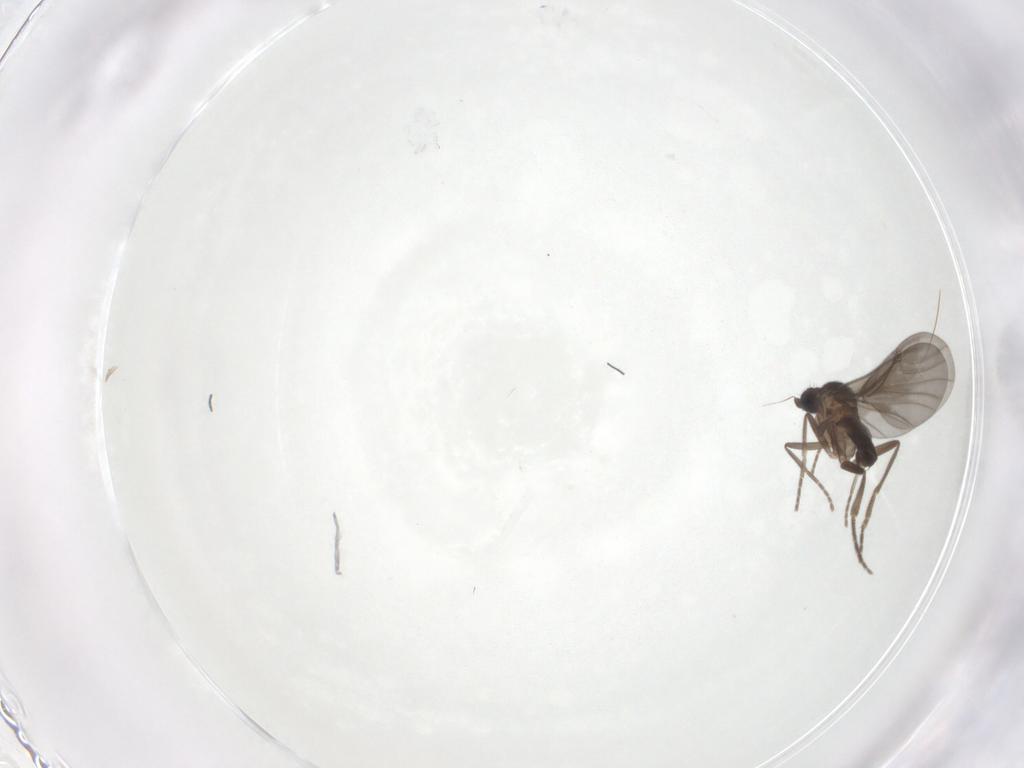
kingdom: Animalia
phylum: Arthropoda
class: Insecta
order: Diptera
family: Phoridae
